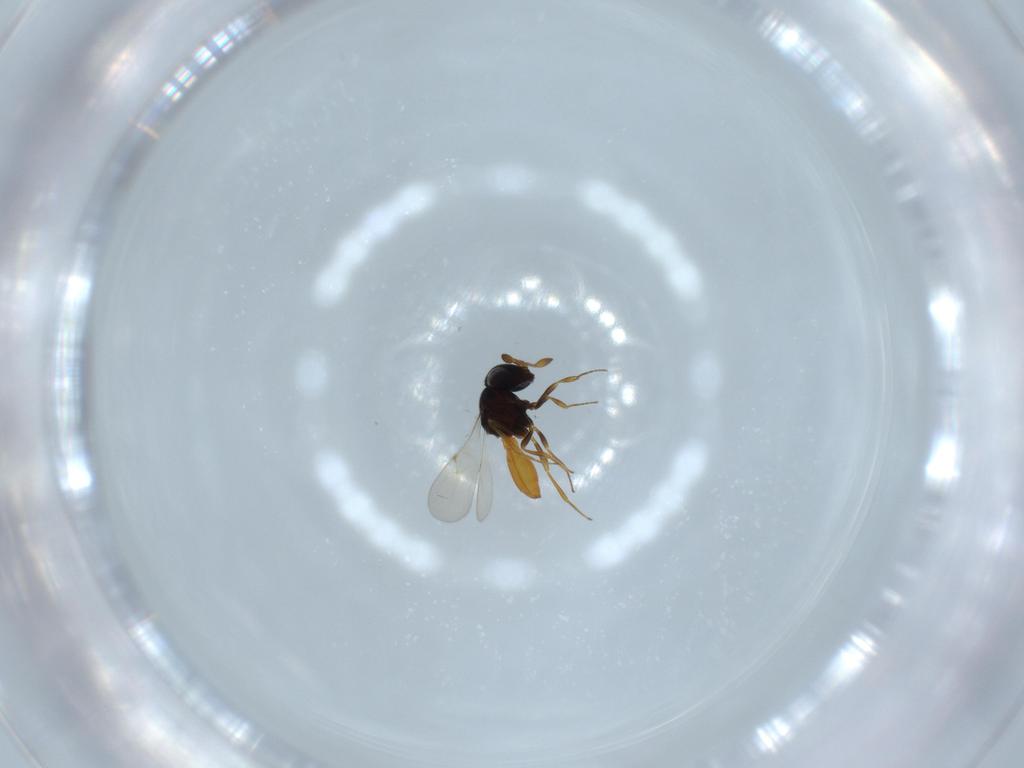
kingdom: Animalia
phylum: Arthropoda
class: Insecta
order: Hymenoptera
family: Scelionidae
